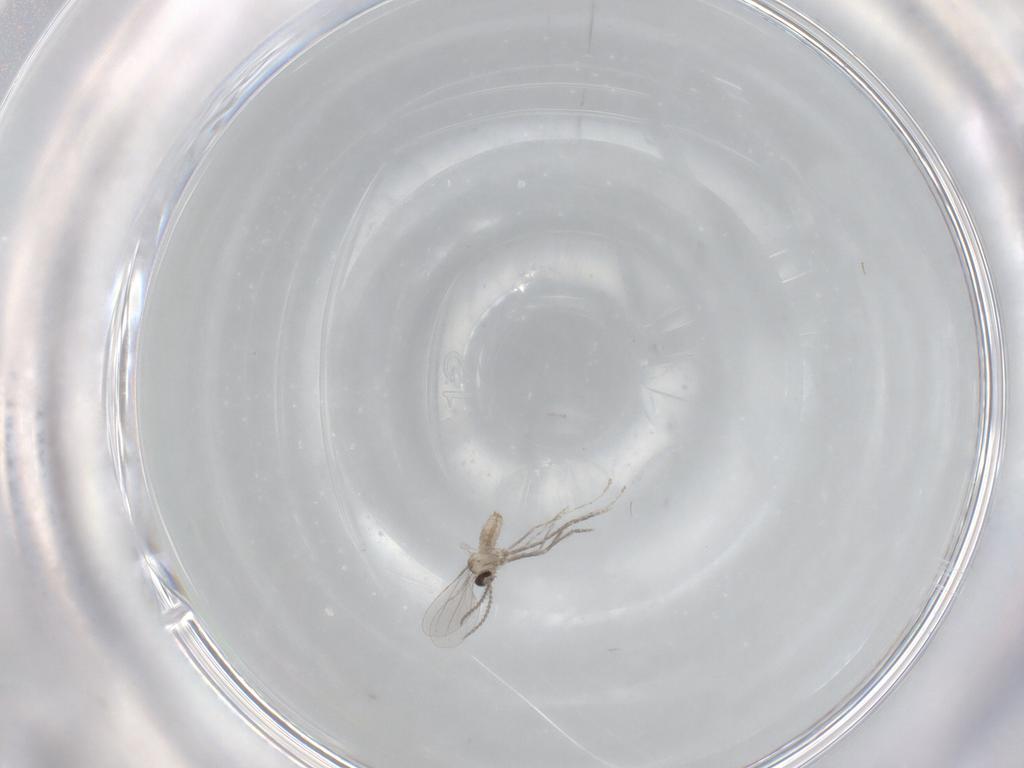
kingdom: Animalia
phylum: Arthropoda
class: Insecta
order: Diptera
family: Cecidomyiidae
